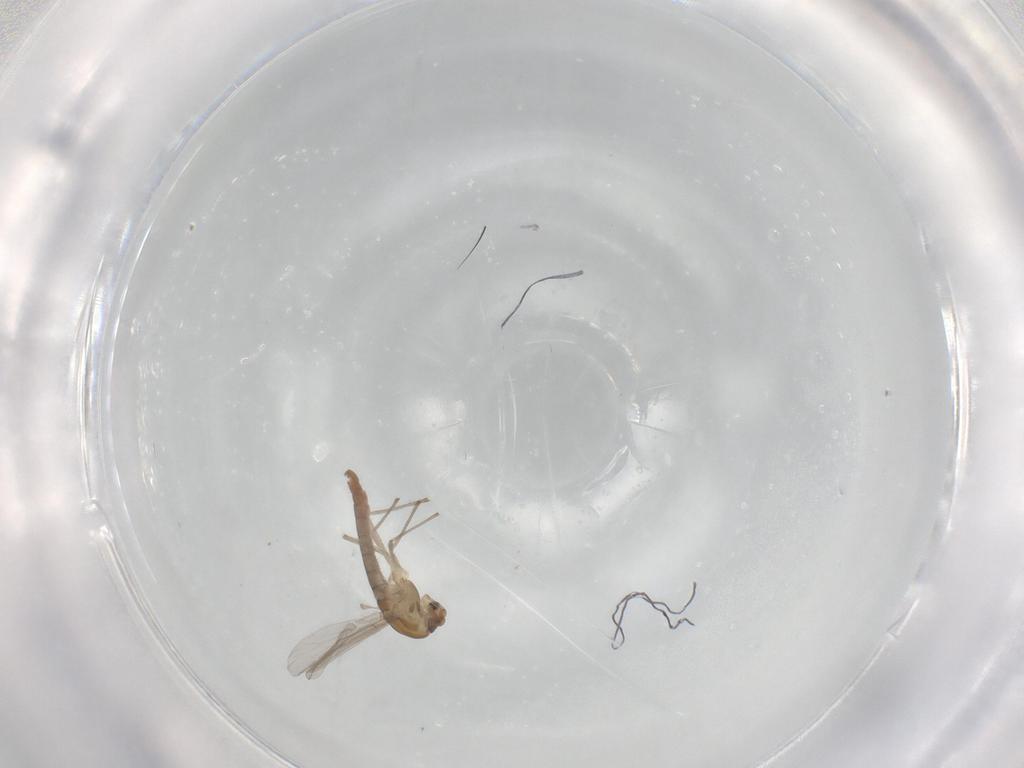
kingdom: Animalia
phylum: Arthropoda
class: Insecta
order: Diptera
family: Chironomidae
